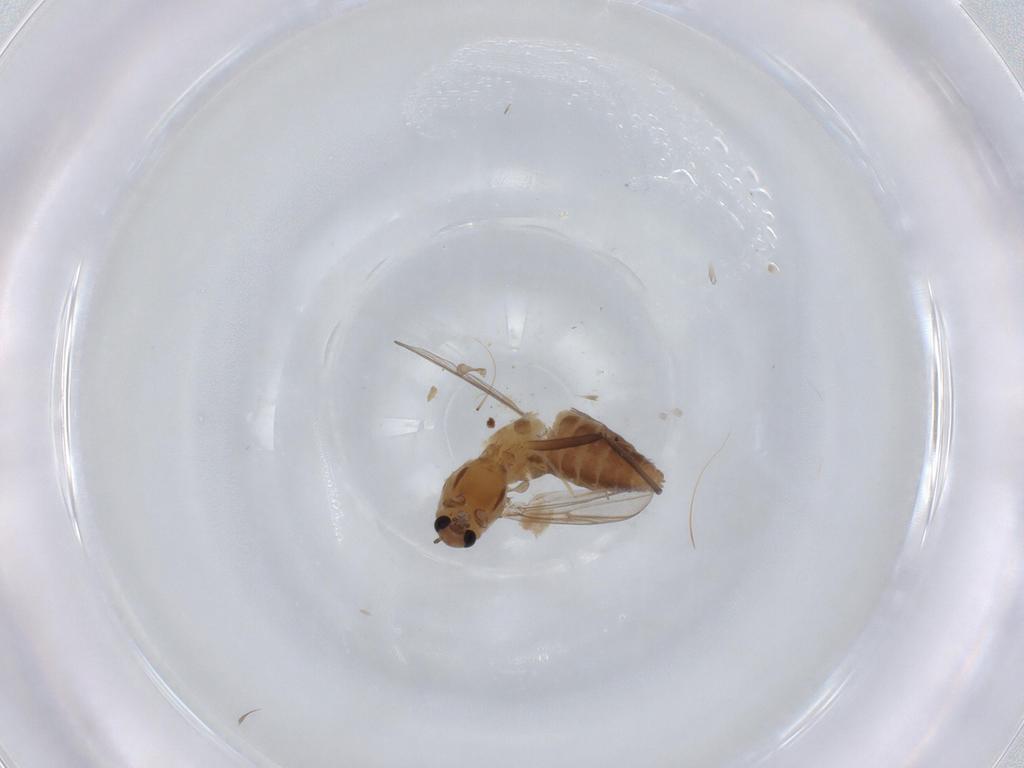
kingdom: Animalia
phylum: Arthropoda
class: Insecta
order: Diptera
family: Chironomidae
